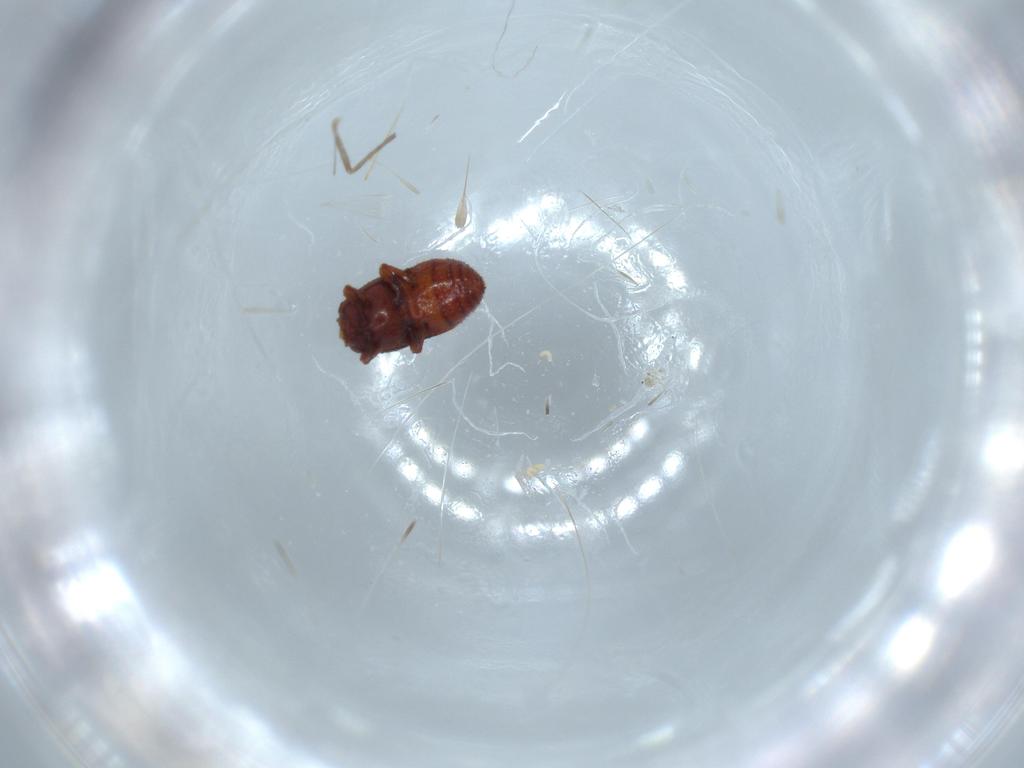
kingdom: Animalia
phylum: Arthropoda
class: Insecta
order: Coleoptera
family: Staphylinidae
